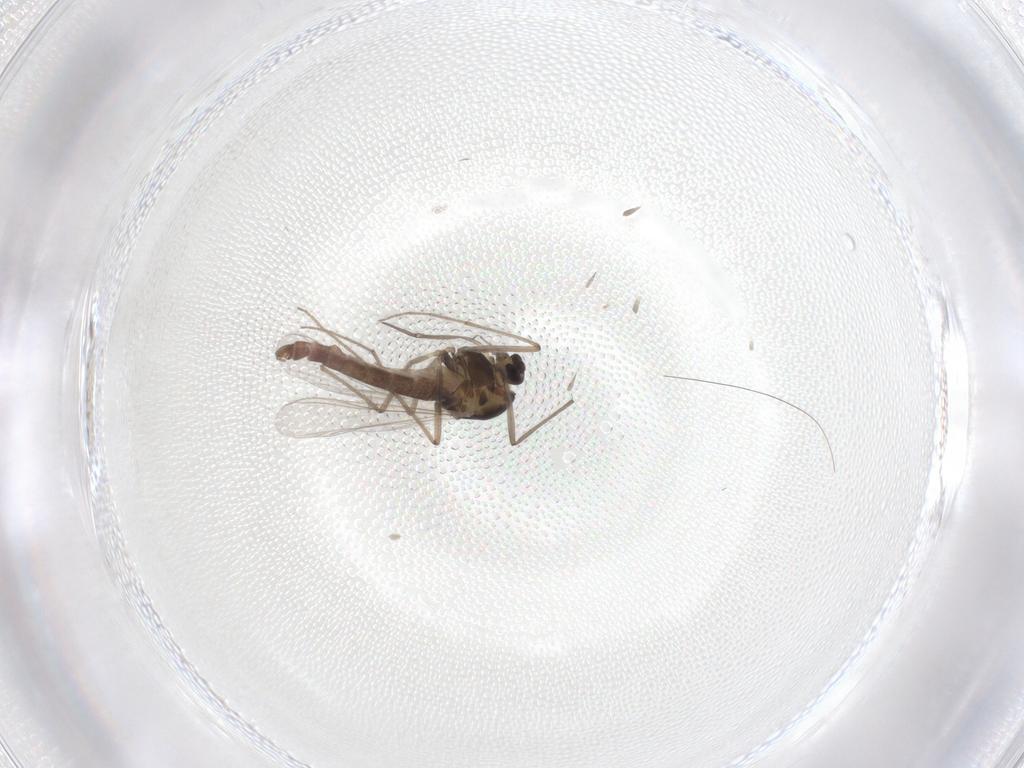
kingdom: Animalia
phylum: Arthropoda
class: Insecta
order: Diptera
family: Chironomidae
